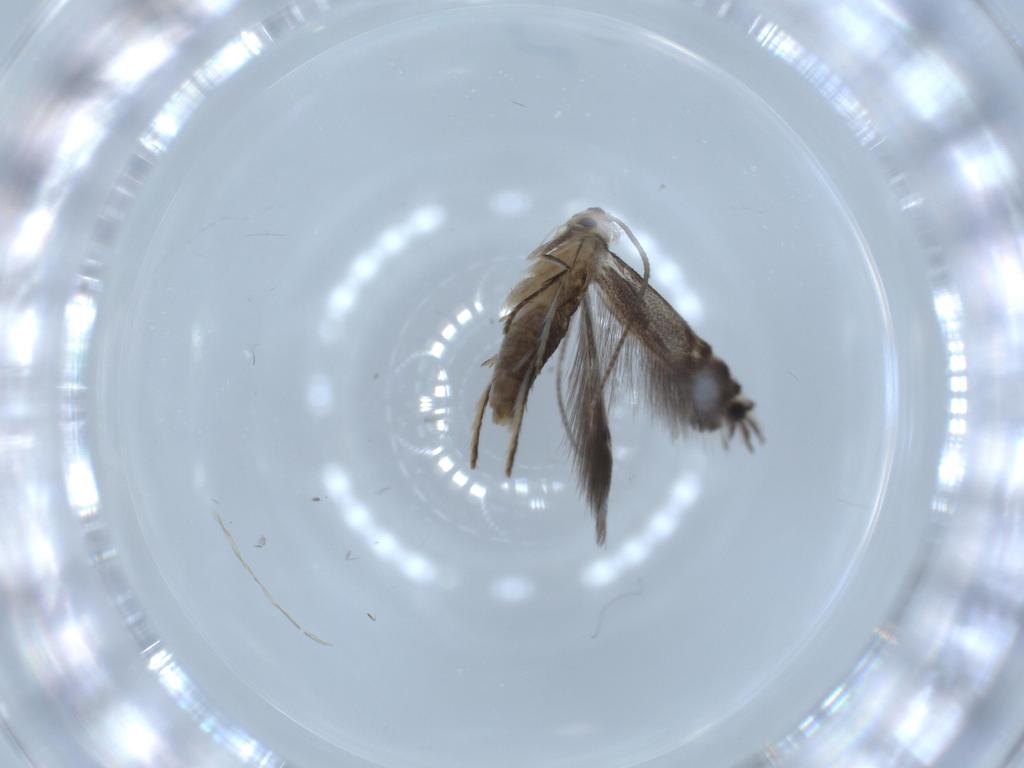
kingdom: Animalia
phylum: Arthropoda
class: Insecta
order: Lepidoptera
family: Gracillariidae
